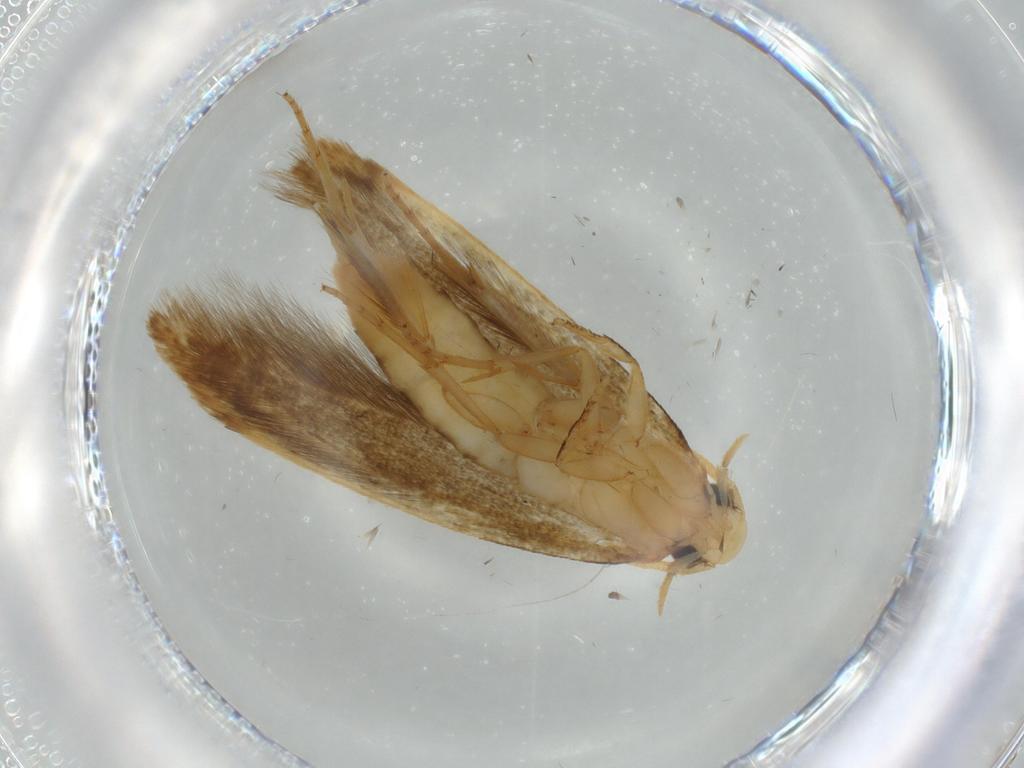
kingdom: Animalia
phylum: Arthropoda
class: Insecta
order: Lepidoptera
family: Tineidae
